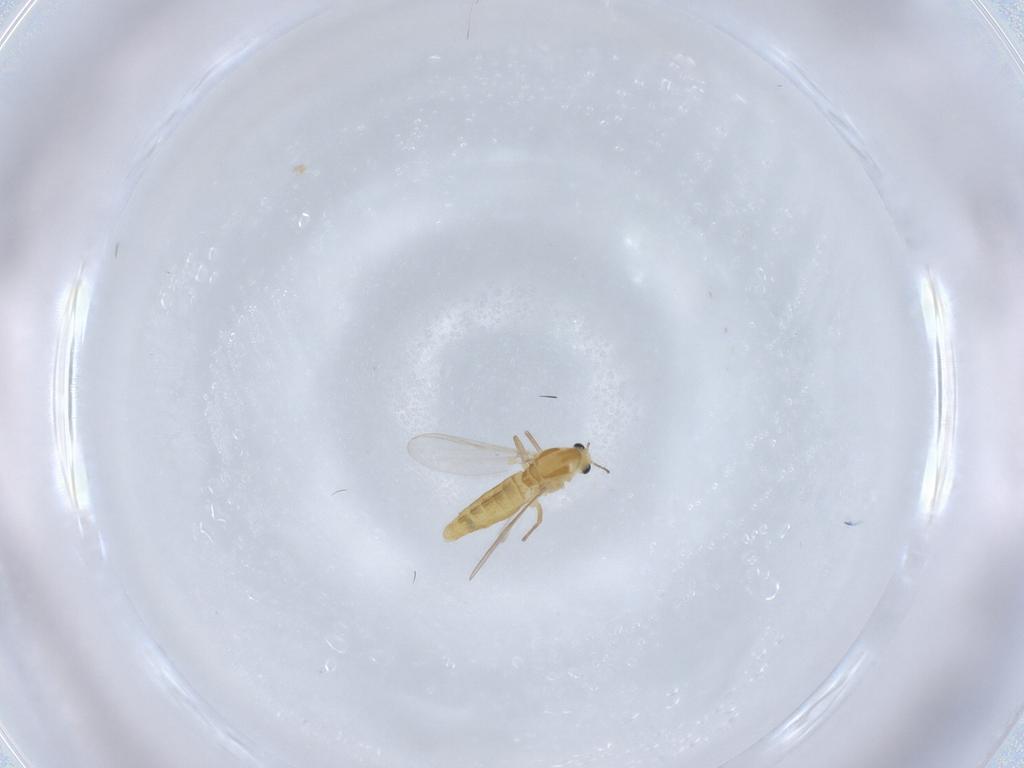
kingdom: Animalia
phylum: Arthropoda
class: Insecta
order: Diptera
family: Chironomidae
